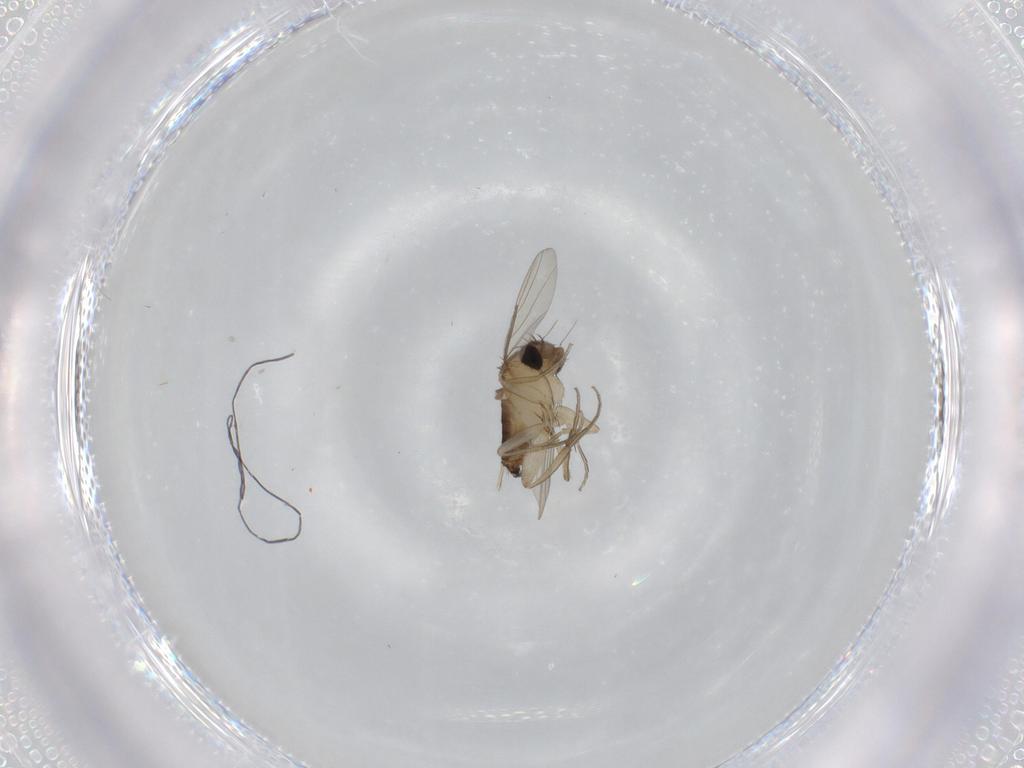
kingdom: Animalia
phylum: Arthropoda
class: Insecta
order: Diptera
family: Phoridae
